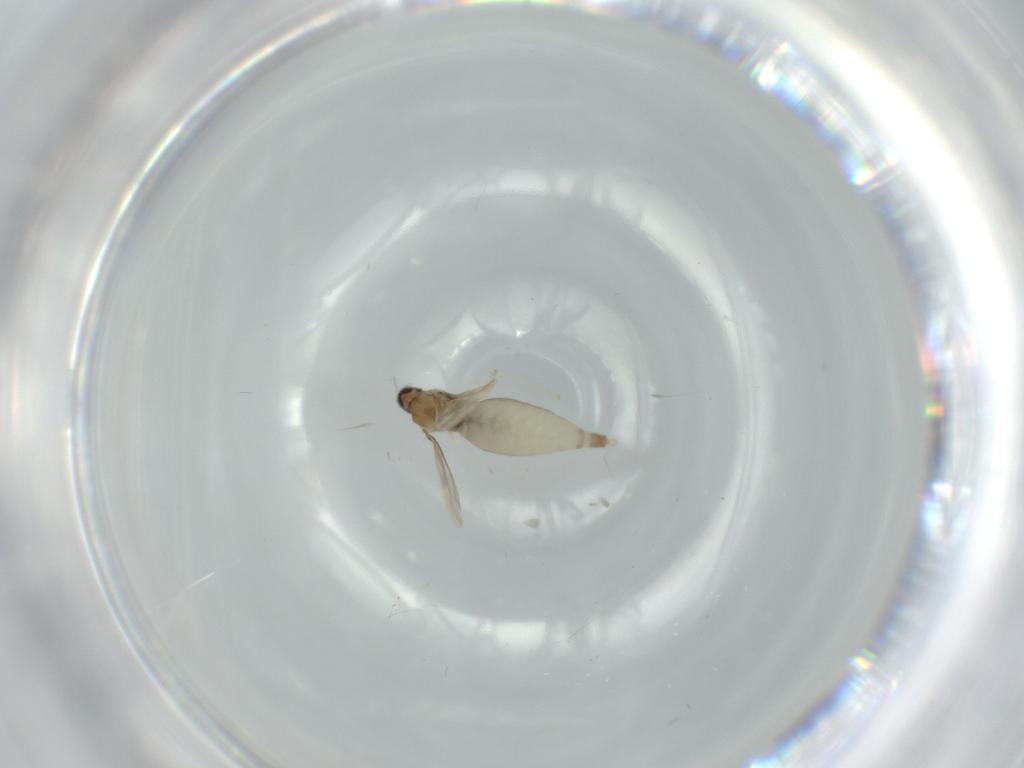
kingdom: Animalia
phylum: Arthropoda
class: Insecta
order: Diptera
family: Cecidomyiidae
